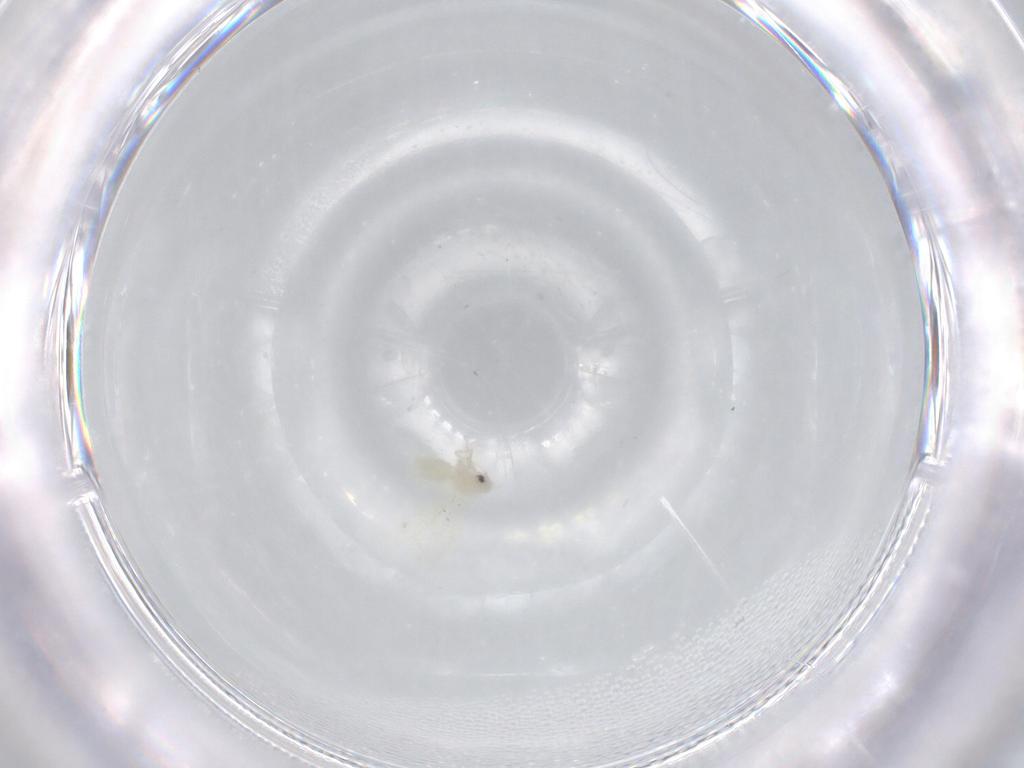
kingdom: Animalia
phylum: Arthropoda
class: Insecta
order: Hemiptera
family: Aleyrodidae
